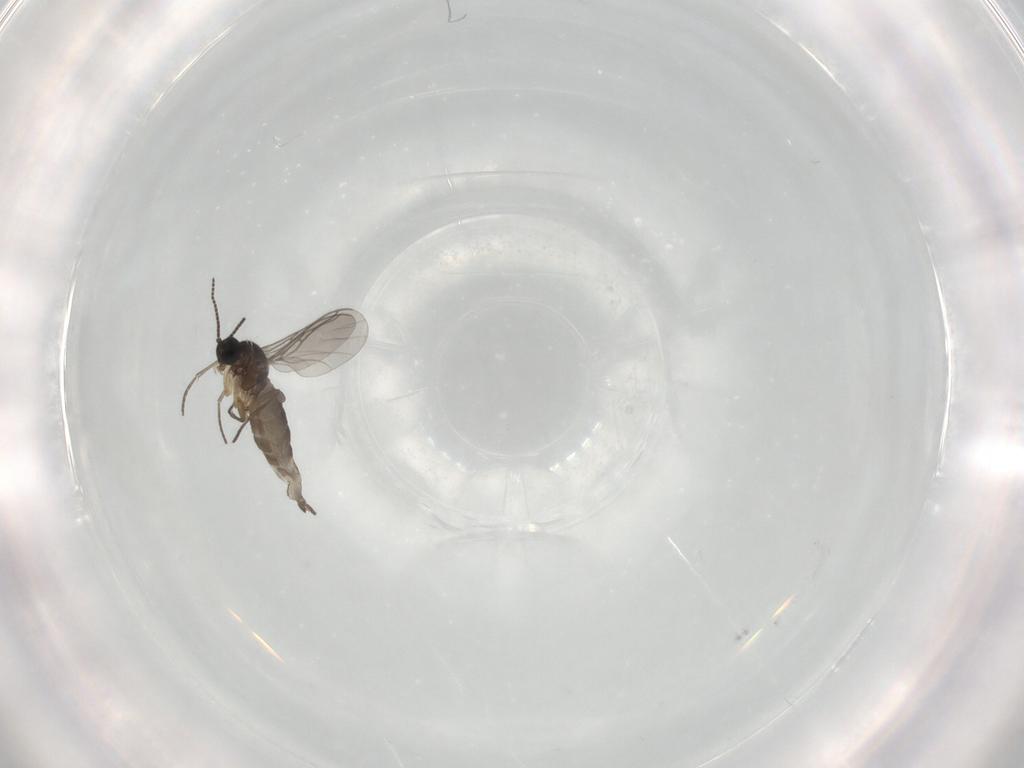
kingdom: Animalia
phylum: Arthropoda
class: Insecta
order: Diptera
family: Sciaridae
